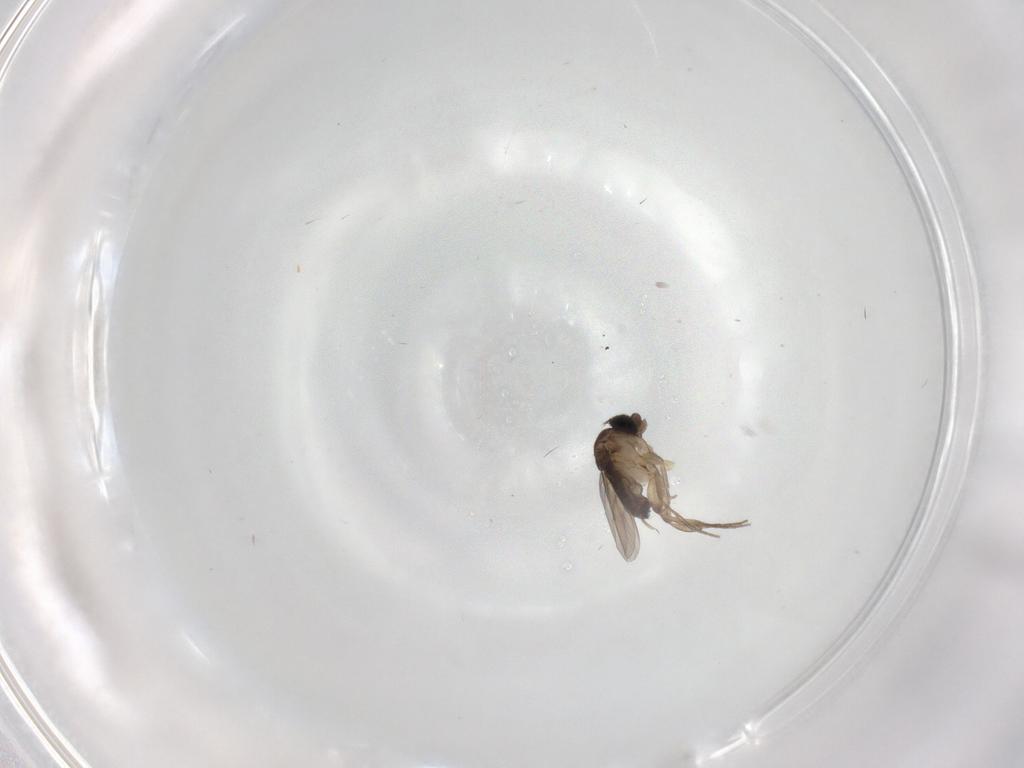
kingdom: Animalia
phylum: Arthropoda
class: Insecta
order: Diptera
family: Phoridae
